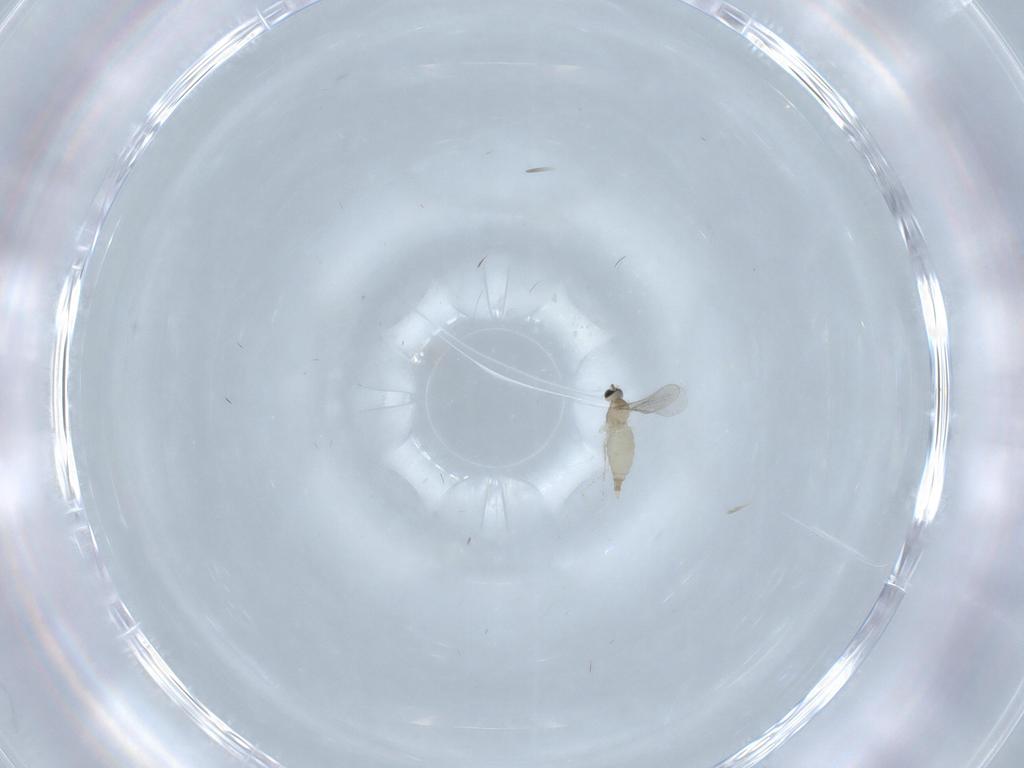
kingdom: Animalia
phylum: Arthropoda
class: Insecta
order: Diptera
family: Cecidomyiidae
